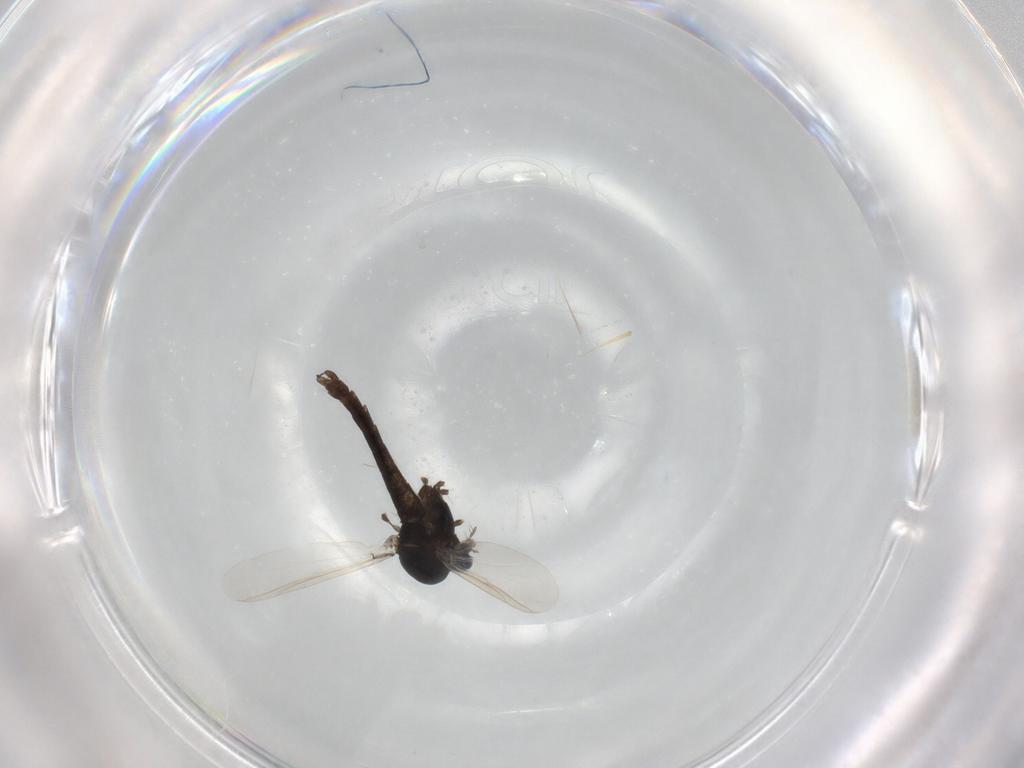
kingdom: Animalia
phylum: Arthropoda
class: Insecta
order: Diptera
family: Chironomidae
